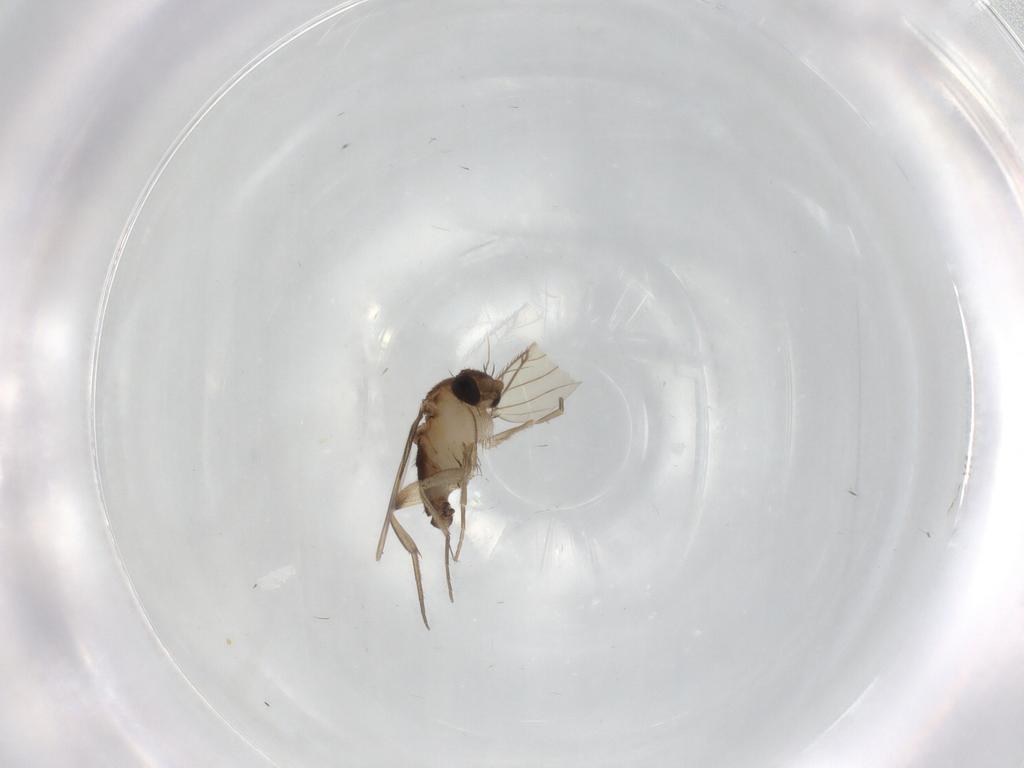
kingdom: Animalia
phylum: Arthropoda
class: Insecta
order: Diptera
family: Phoridae
